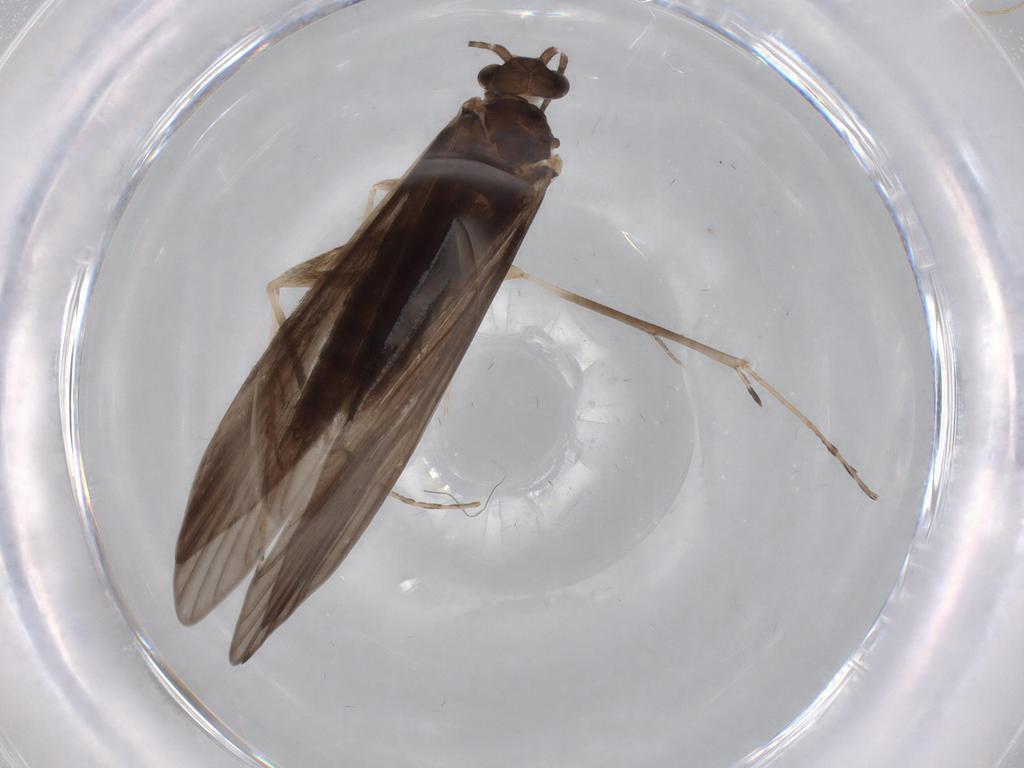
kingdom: Animalia
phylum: Arthropoda
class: Insecta
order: Trichoptera
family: Xiphocentronidae
